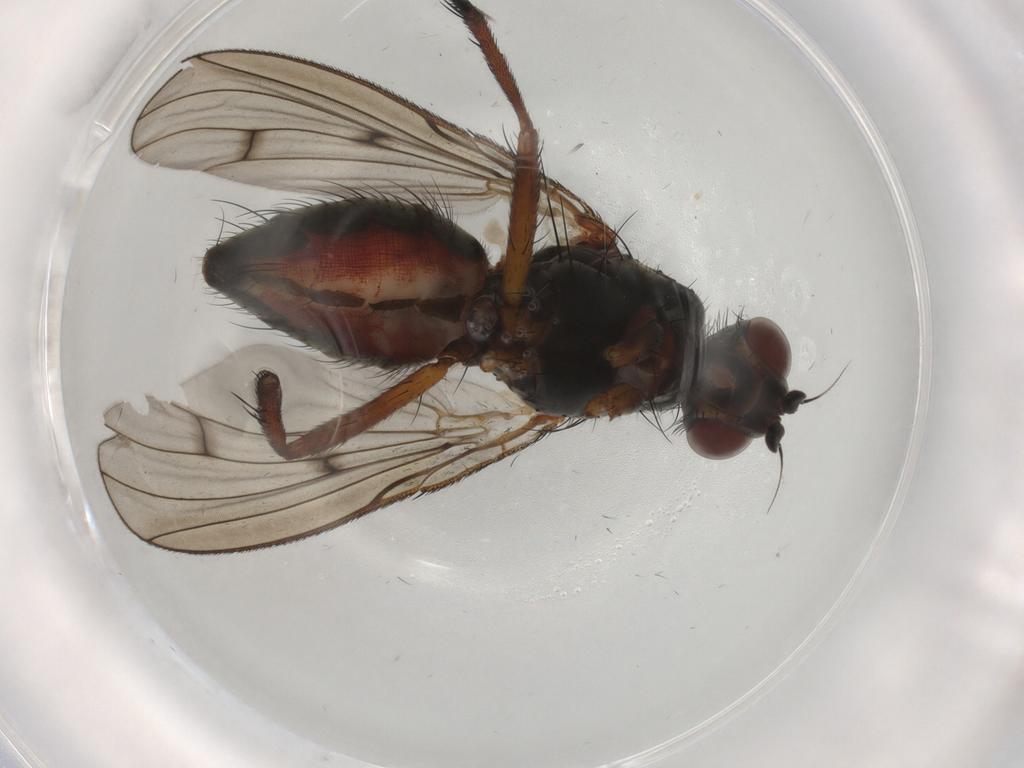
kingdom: Animalia
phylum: Arthropoda
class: Insecta
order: Diptera
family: Anthomyiidae
